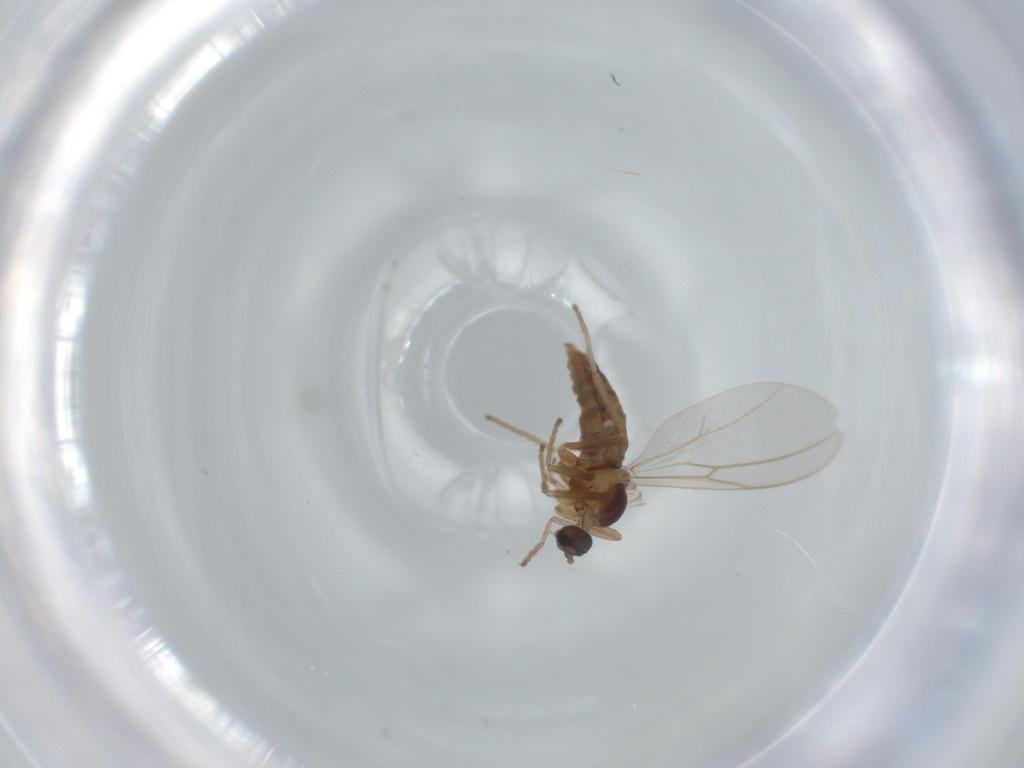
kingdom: Animalia
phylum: Arthropoda
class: Insecta
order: Diptera
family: Cecidomyiidae
